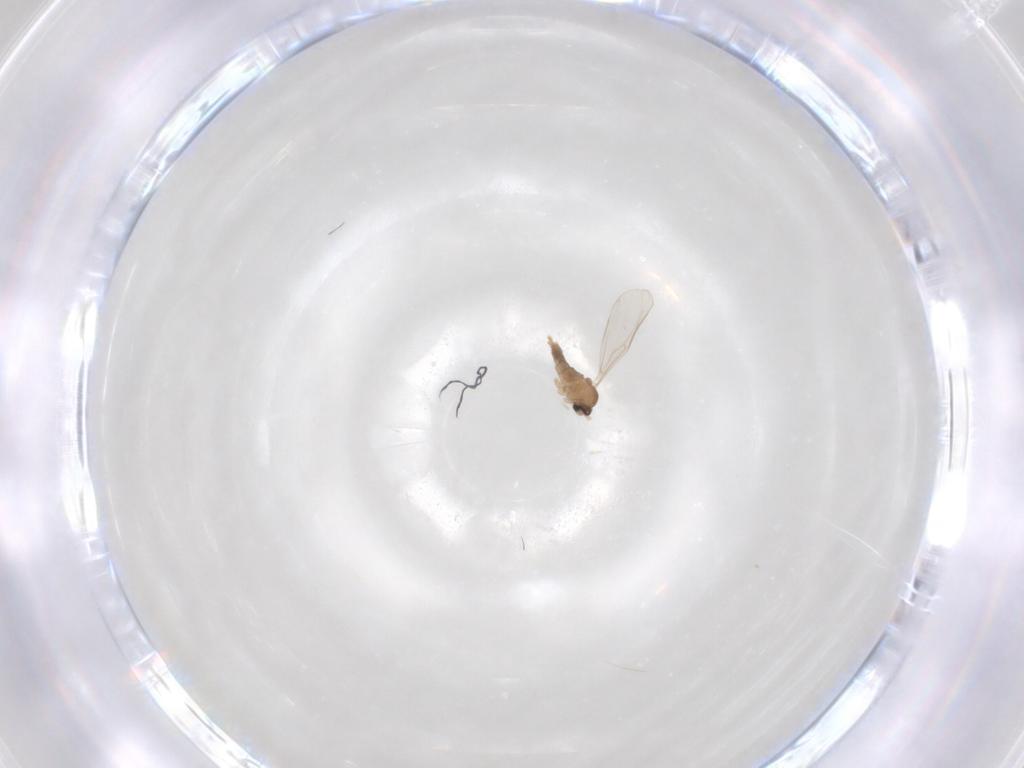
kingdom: Animalia
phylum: Arthropoda
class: Insecta
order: Diptera
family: Cecidomyiidae
